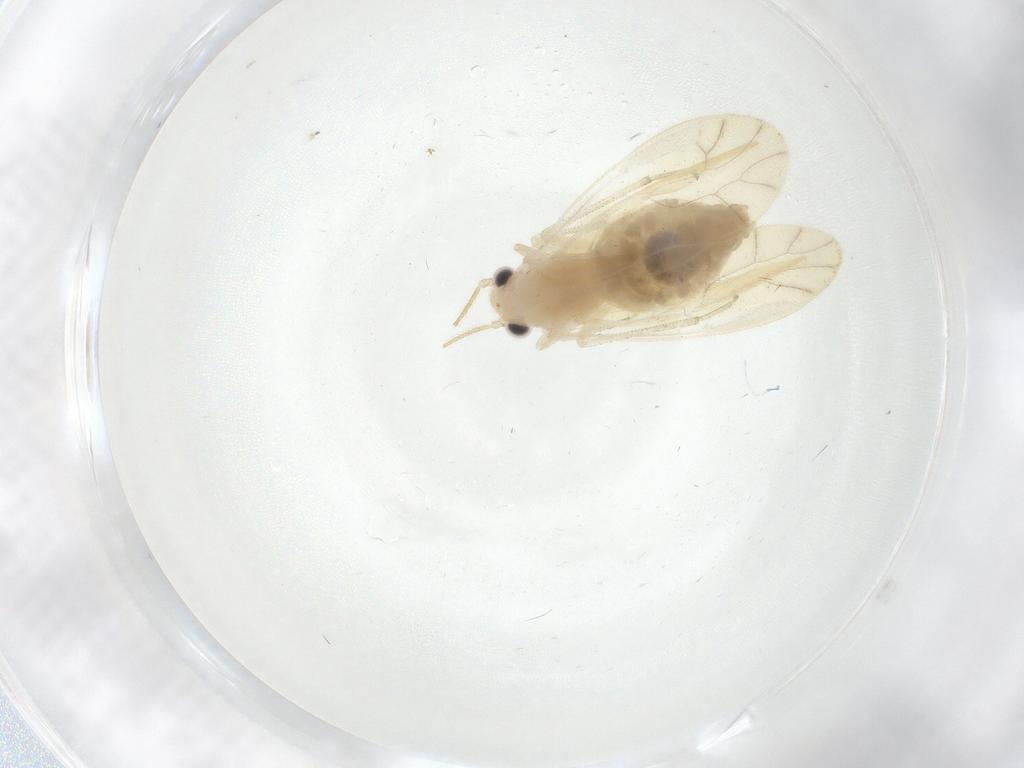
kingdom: Animalia
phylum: Arthropoda
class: Insecta
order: Psocodea
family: Caeciliusidae
